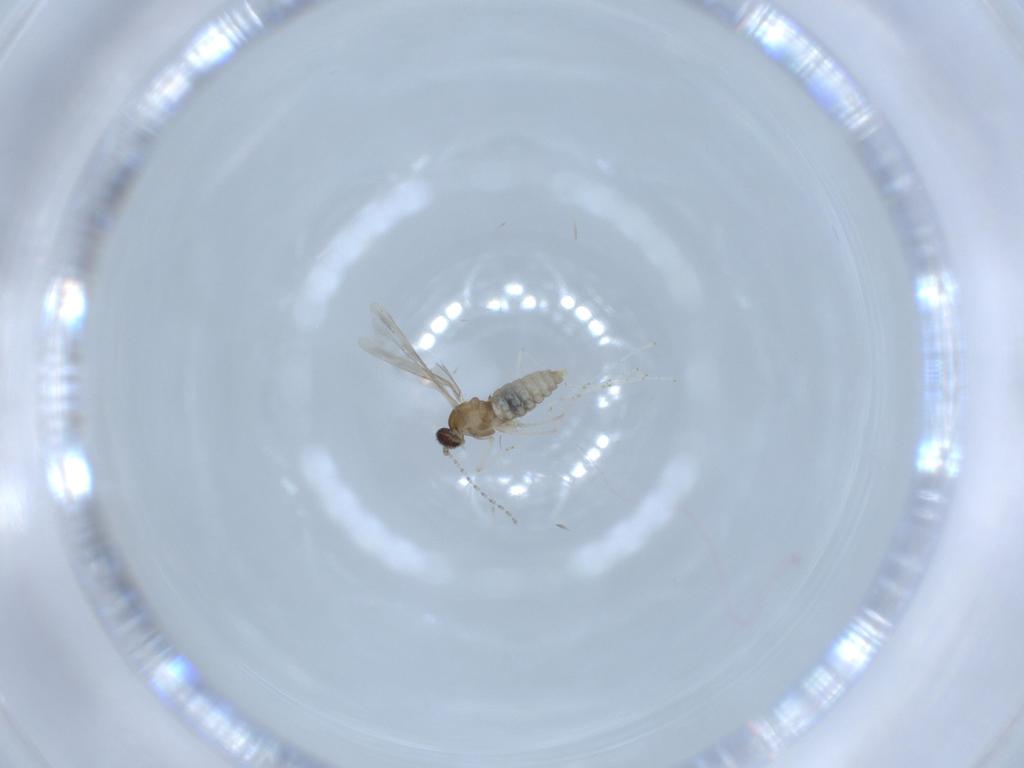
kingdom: Animalia
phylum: Arthropoda
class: Insecta
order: Diptera
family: Cecidomyiidae
